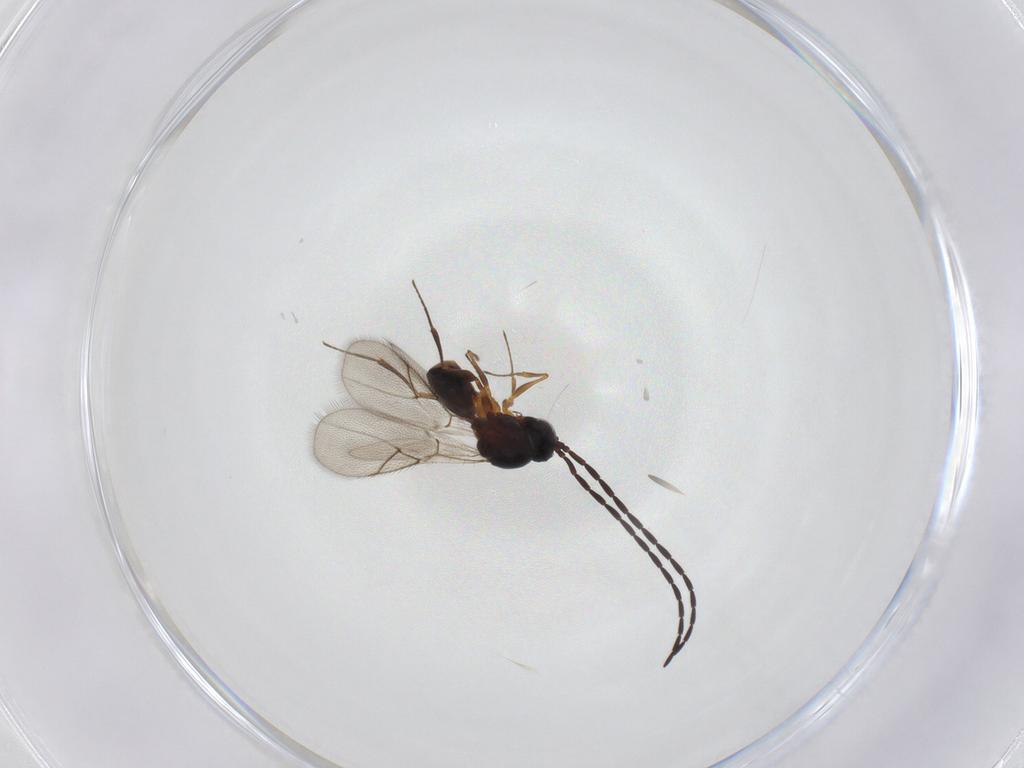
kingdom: Animalia
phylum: Arthropoda
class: Insecta
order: Hymenoptera
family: Figitidae
